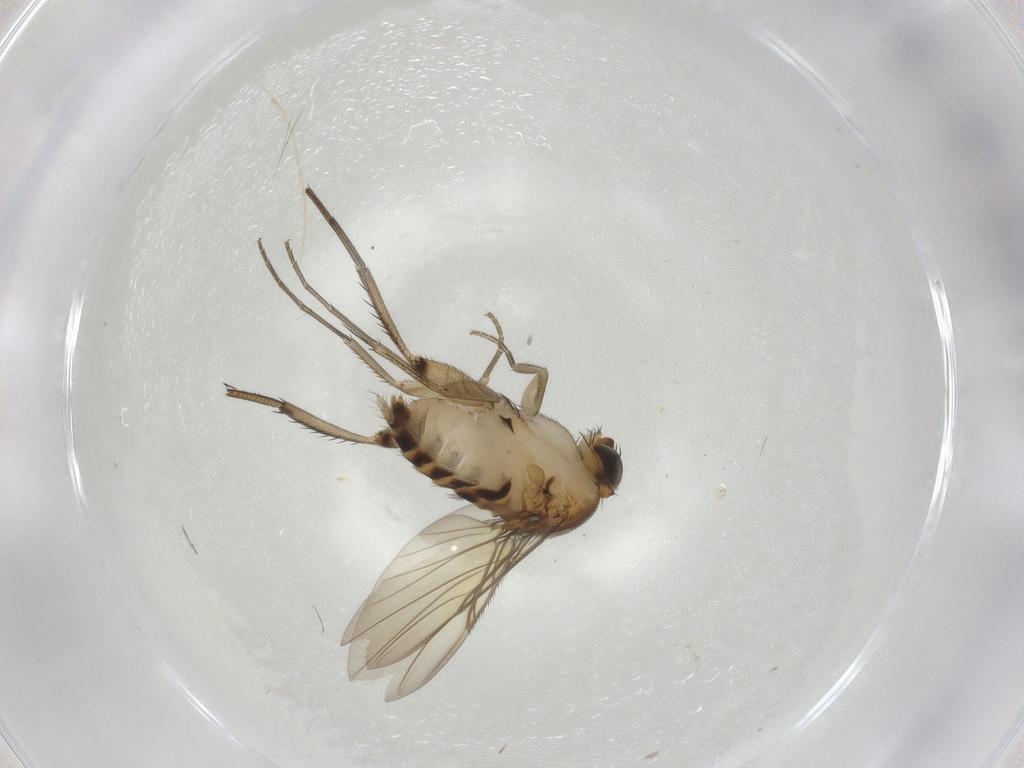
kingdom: Animalia
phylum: Arthropoda
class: Insecta
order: Diptera
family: Phoridae
